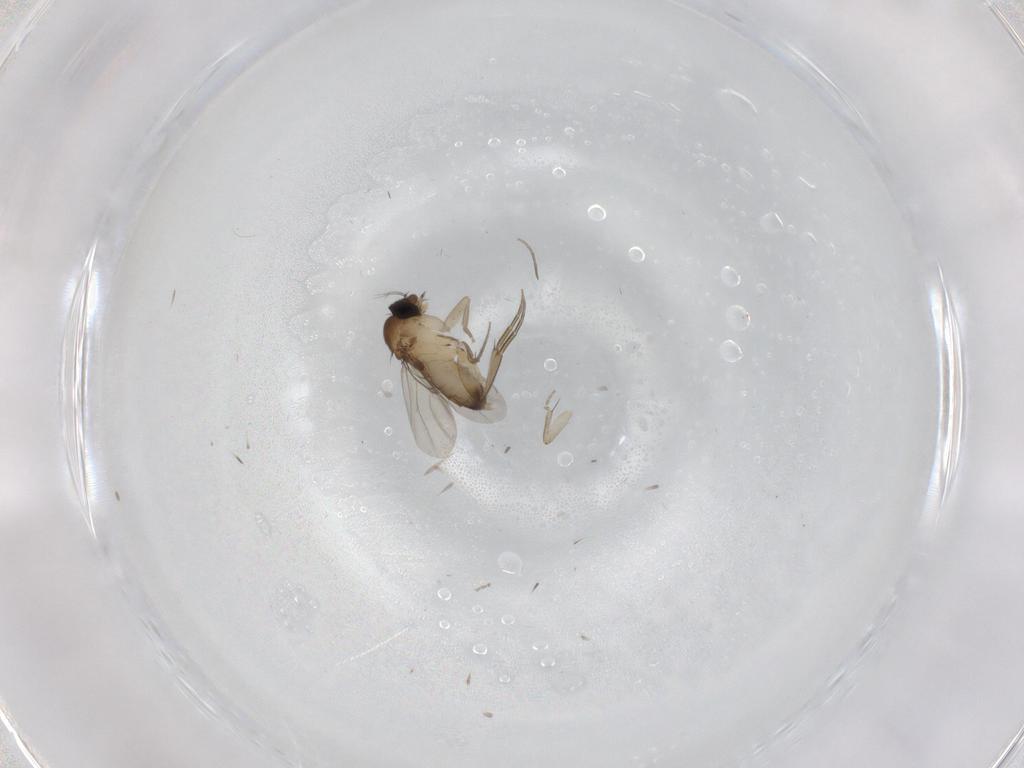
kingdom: Animalia
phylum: Arthropoda
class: Insecta
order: Diptera
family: Phoridae
